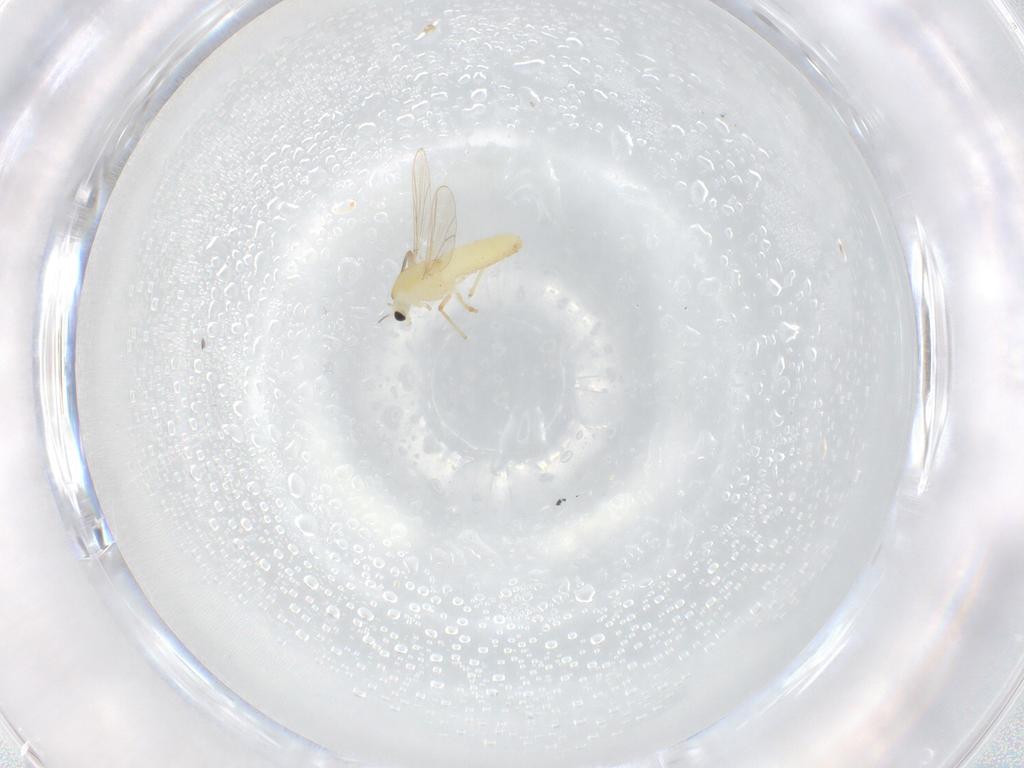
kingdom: Animalia
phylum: Arthropoda
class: Insecta
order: Diptera
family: Chironomidae
